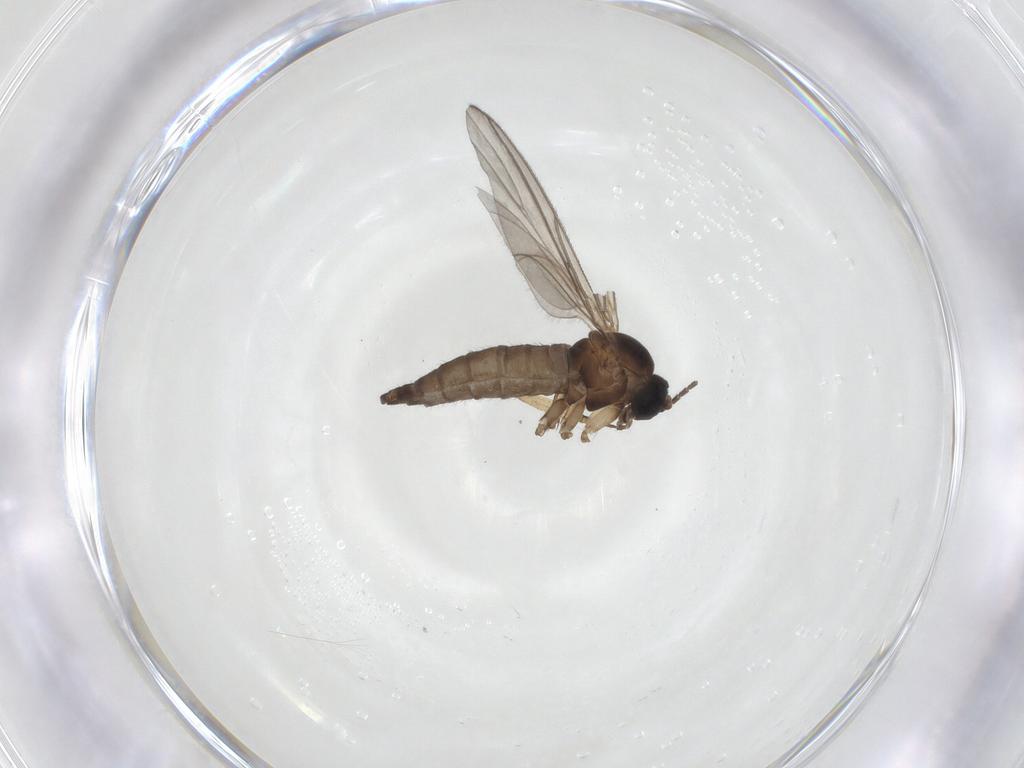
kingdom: Animalia
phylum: Arthropoda
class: Insecta
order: Diptera
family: Sciaridae
